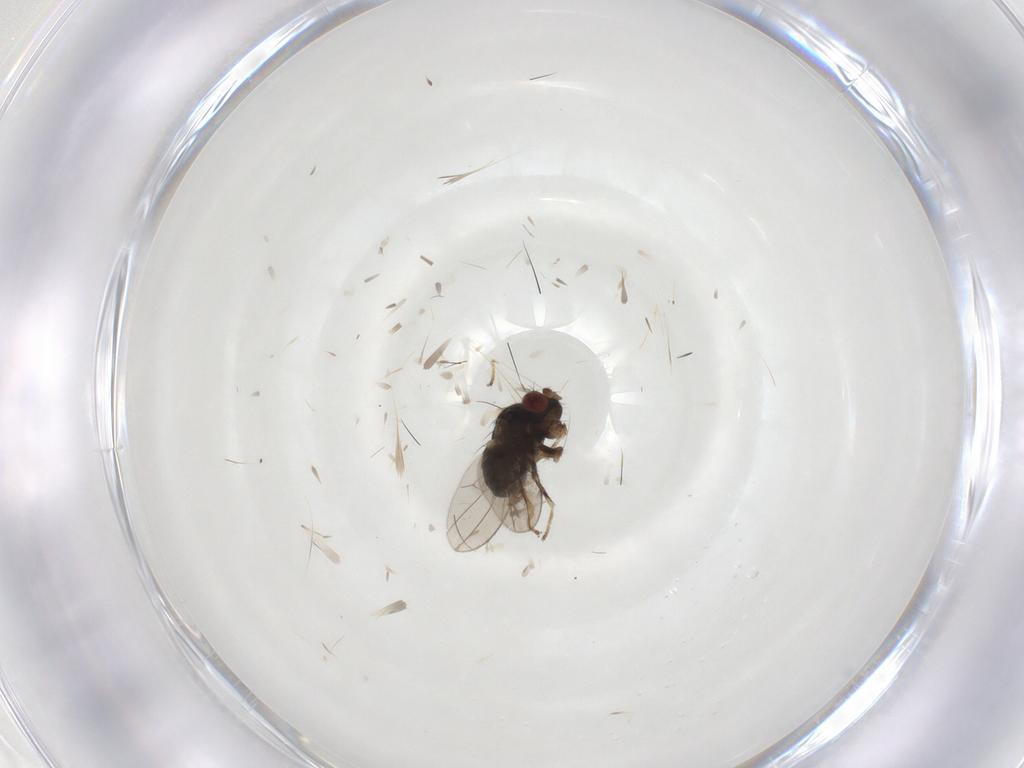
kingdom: Animalia
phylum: Arthropoda
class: Insecta
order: Diptera
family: Ephydridae
